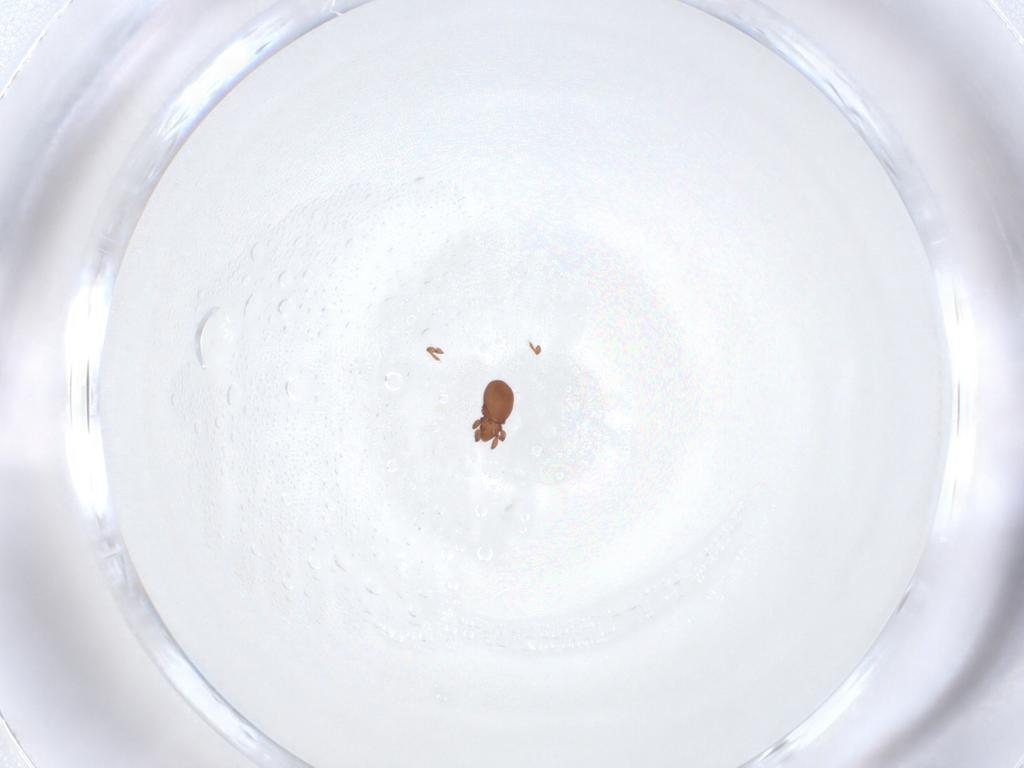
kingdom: Animalia
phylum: Arthropoda
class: Arachnida
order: Sarcoptiformes
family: Eremaeidae
